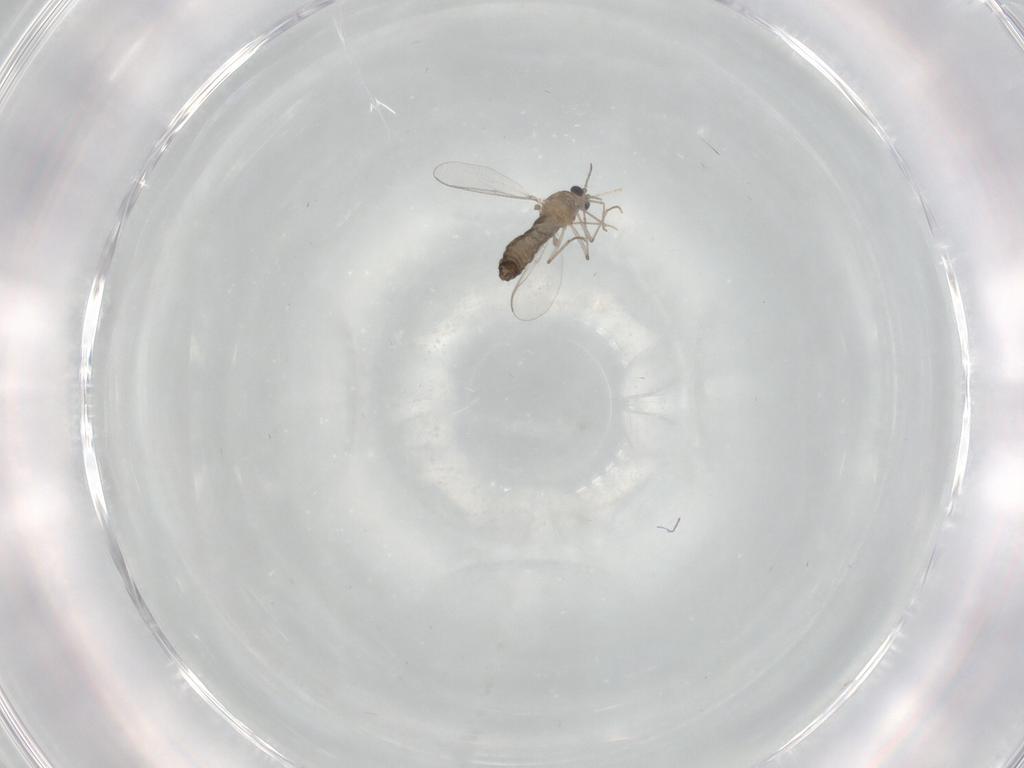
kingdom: Animalia
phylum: Arthropoda
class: Insecta
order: Diptera
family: Chironomidae
